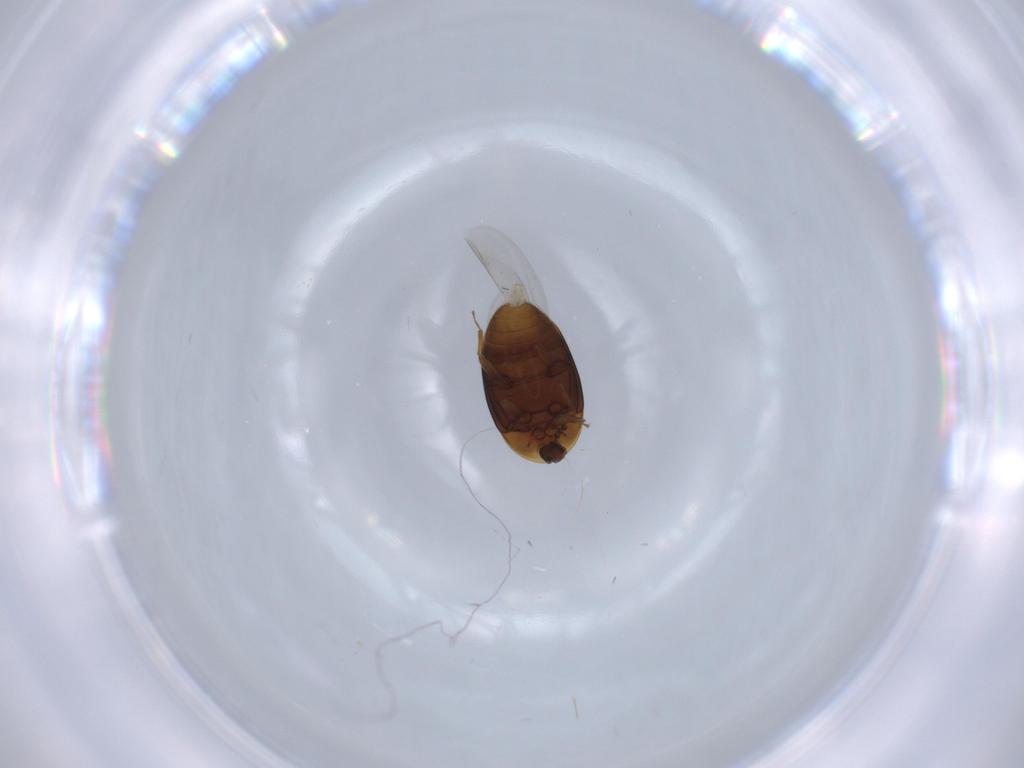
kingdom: Animalia
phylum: Arthropoda
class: Insecta
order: Coleoptera
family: Corylophidae
